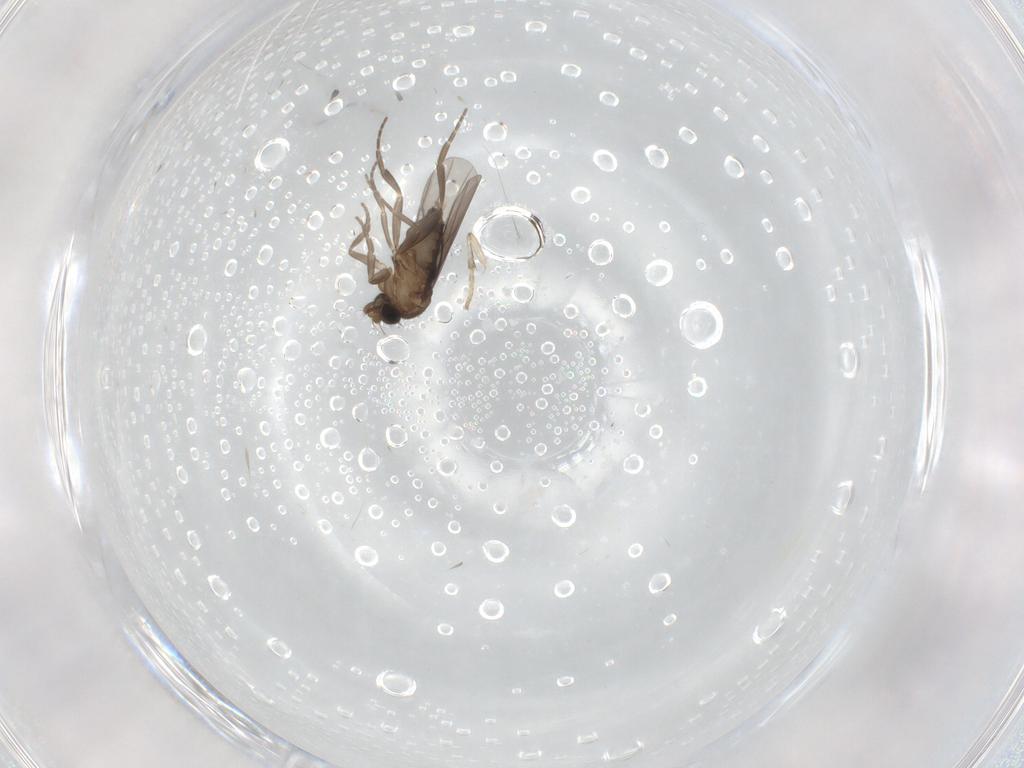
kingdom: Animalia
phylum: Arthropoda
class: Insecta
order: Diptera
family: Psychodidae
